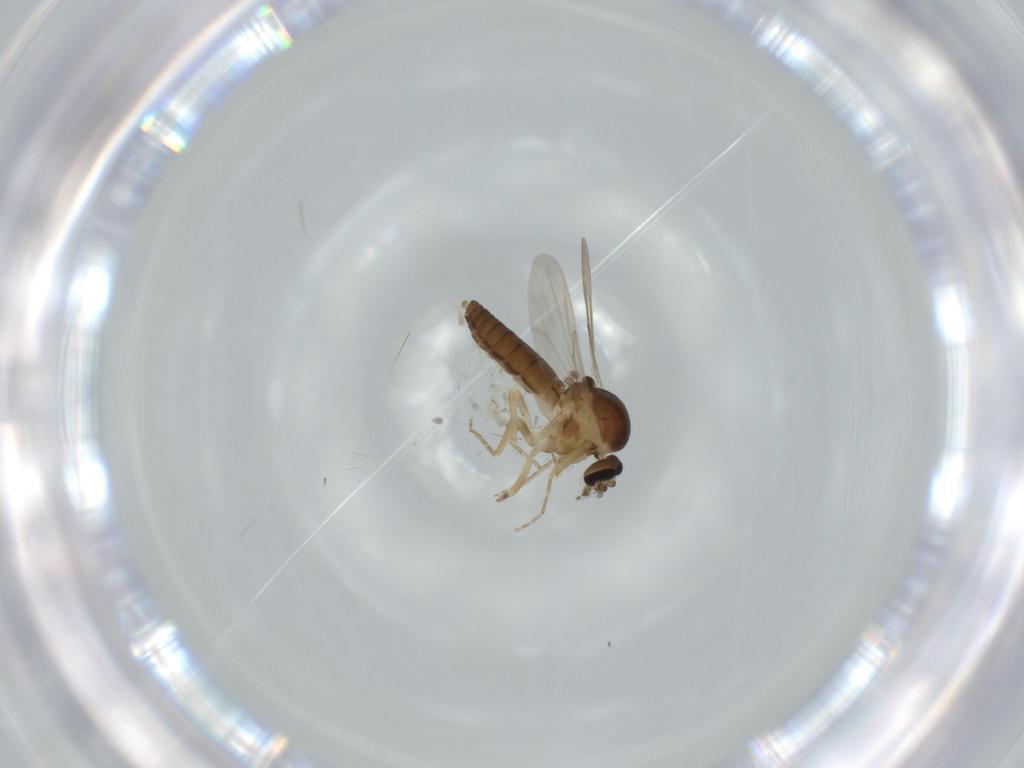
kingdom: Animalia
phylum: Arthropoda
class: Insecta
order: Diptera
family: Ceratopogonidae
